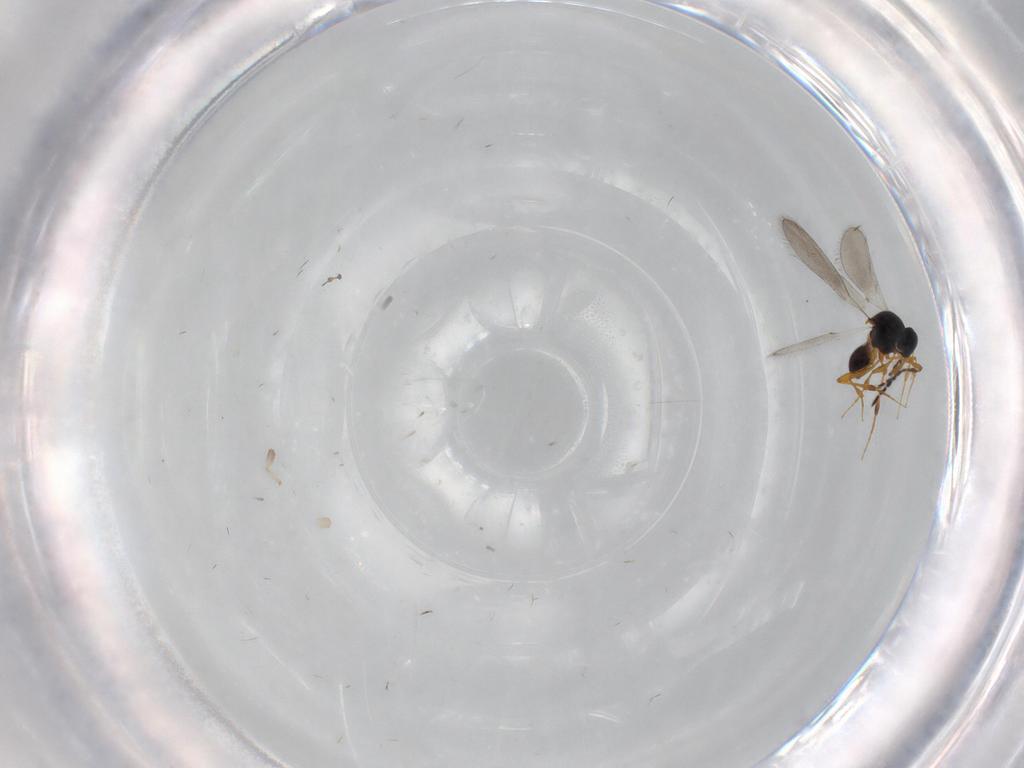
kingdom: Animalia
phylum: Arthropoda
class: Insecta
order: Hymenoptera
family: Platygastridae
